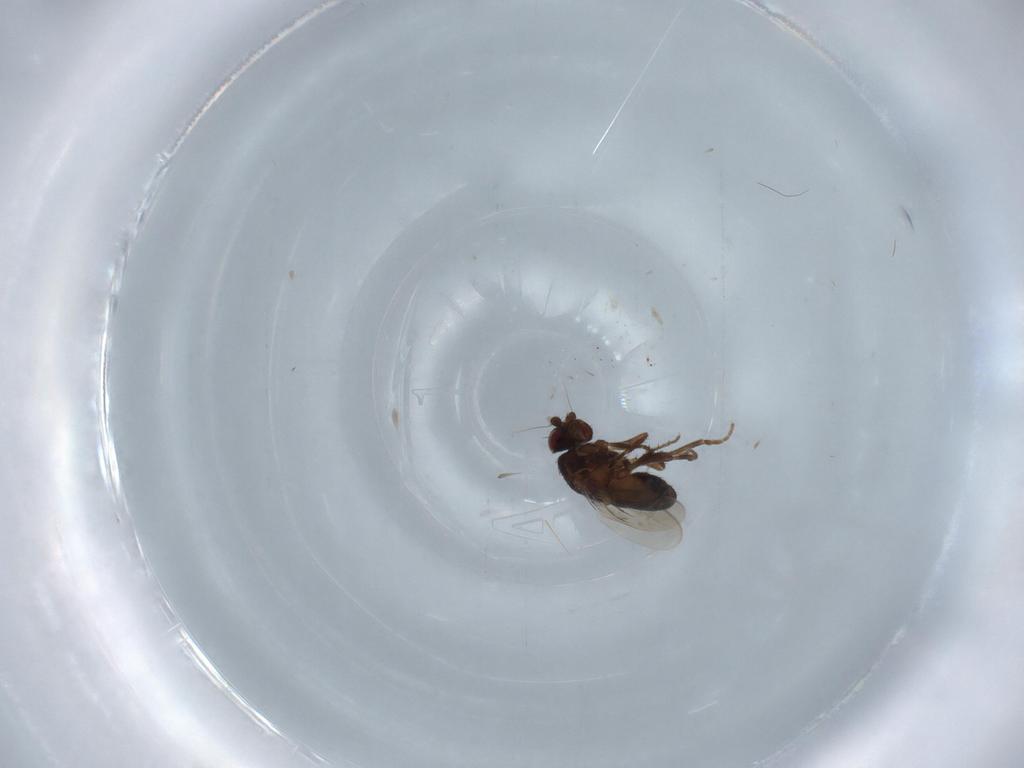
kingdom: Animalia
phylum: Arthropoda
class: Insecta
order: Diptera
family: Sphaeroceridae
